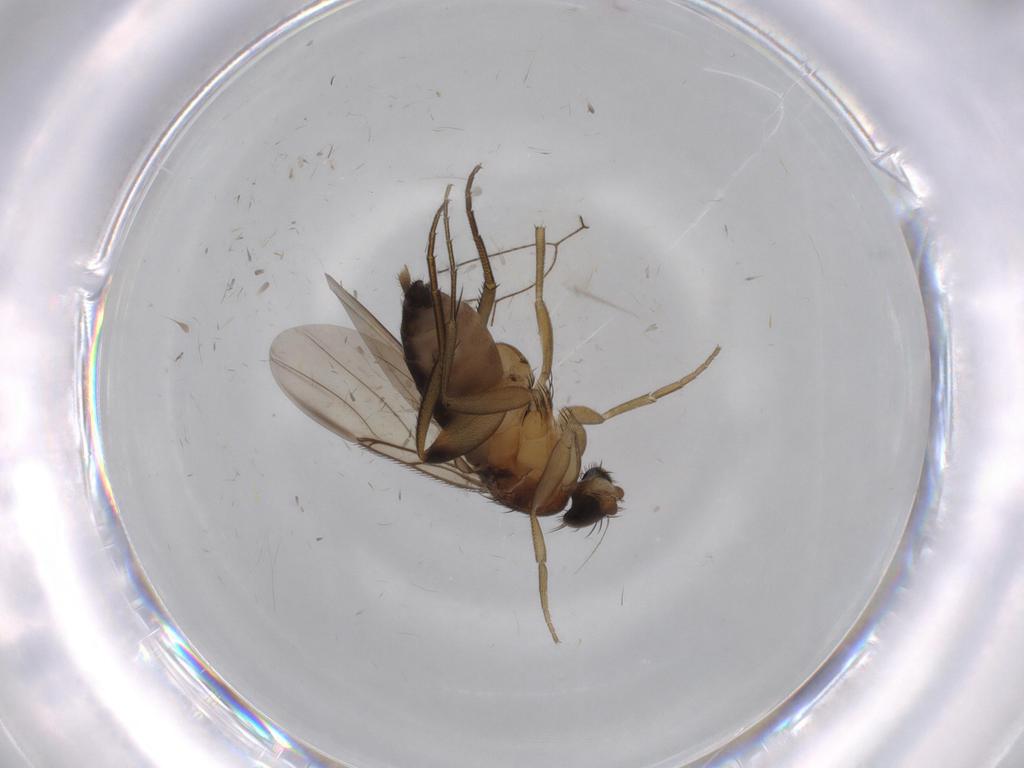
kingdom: Animalia
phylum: Arthropoda
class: Insecta
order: Diptera
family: Phoridae
